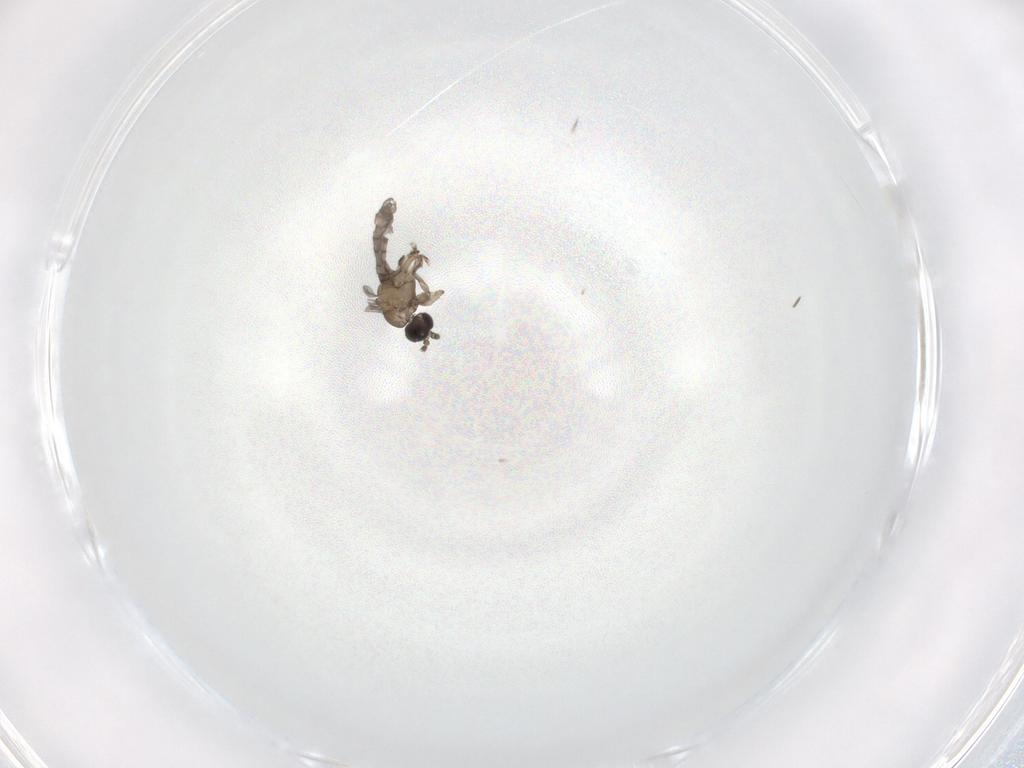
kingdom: Animalia
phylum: Arthropoda
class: Insecta
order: Diptera
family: Micropezidae
